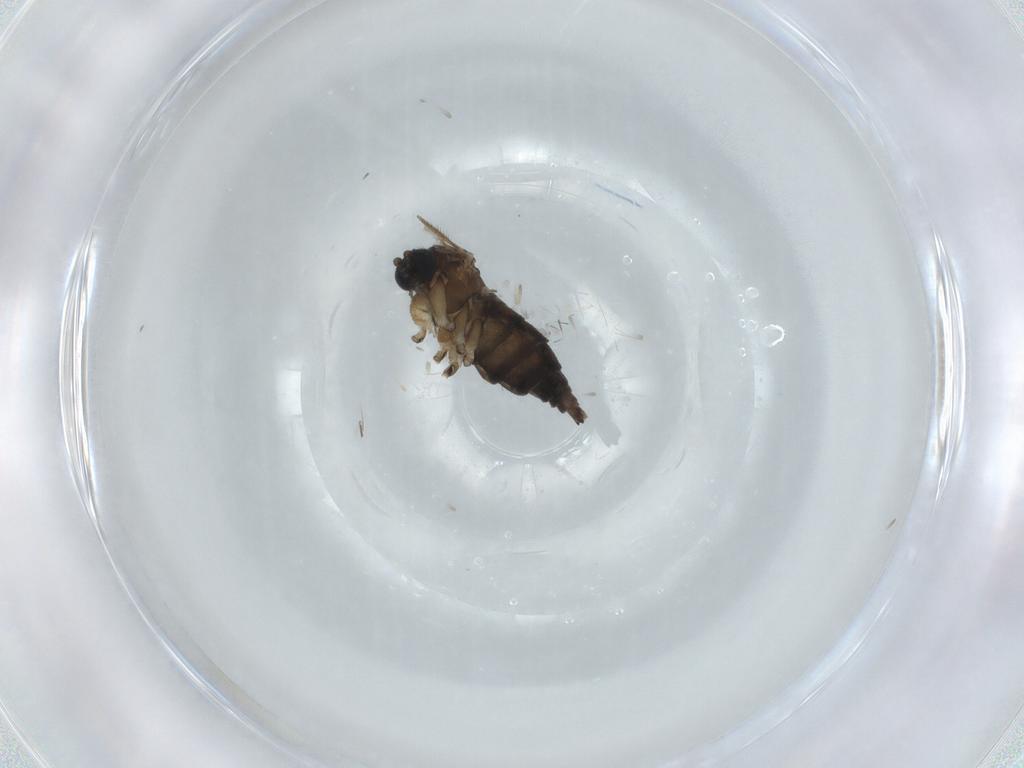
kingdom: Animalia
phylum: Arthropoda
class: Insecta
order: Diptera
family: Sciaridae
